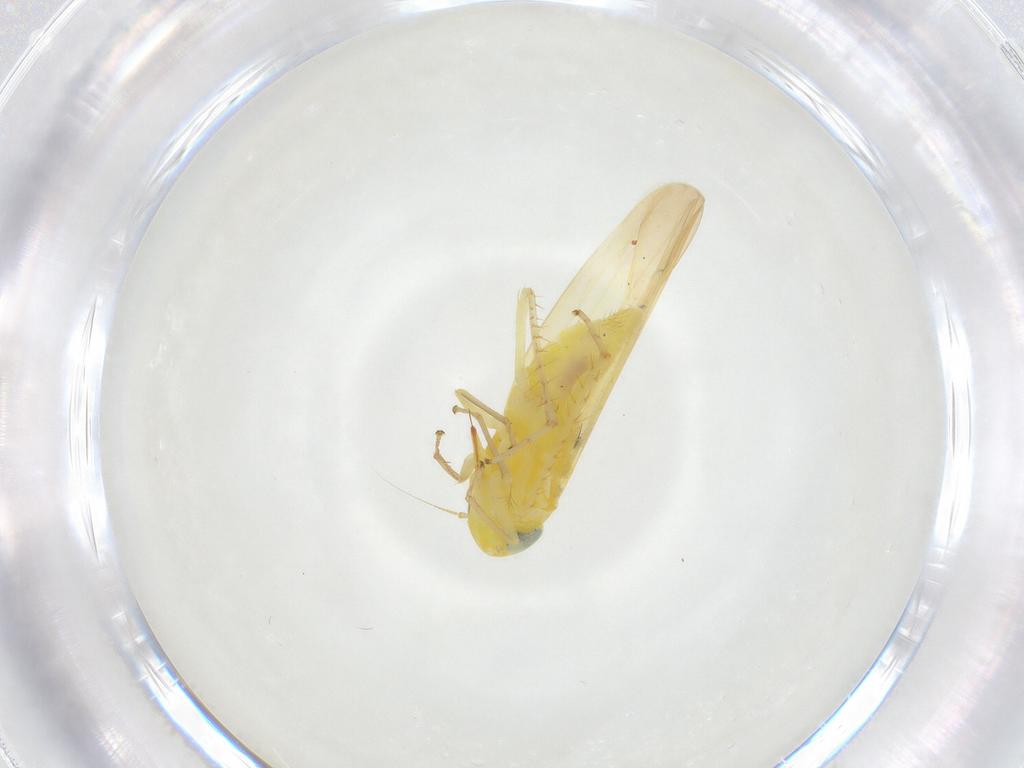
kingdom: Animalia
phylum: Arthropoda
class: Insecta
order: Hemiptera
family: Cicadellidae
